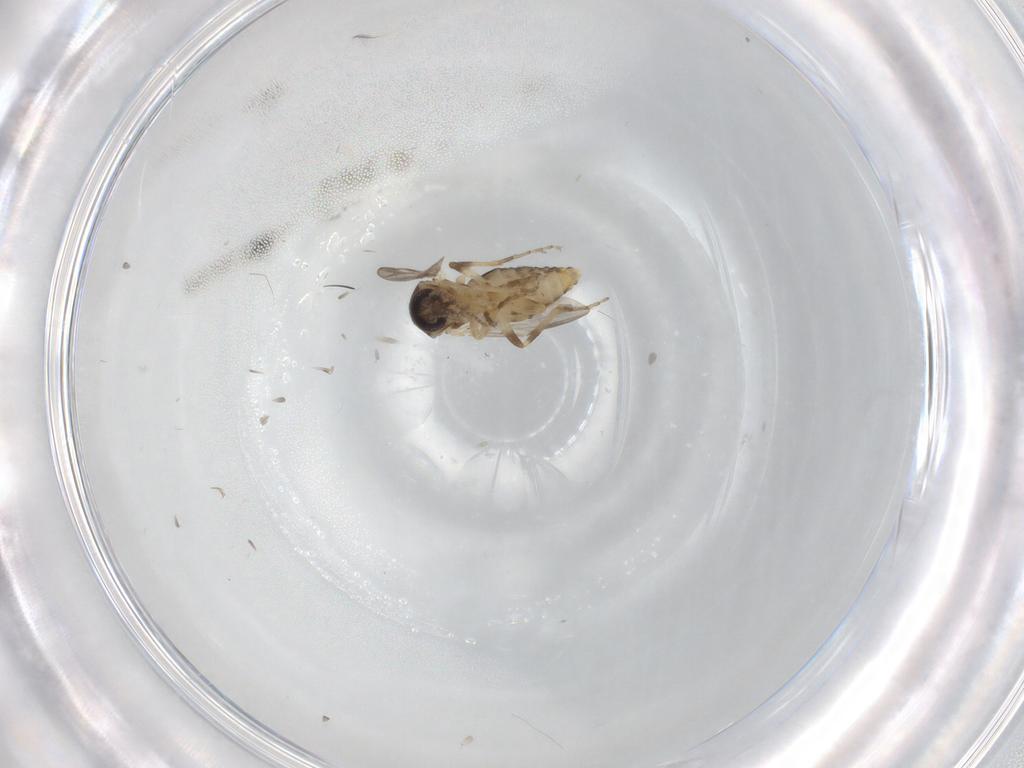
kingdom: Animalia
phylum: Arthropoda
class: Insecta
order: Diptera
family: Ceratopogonidae
